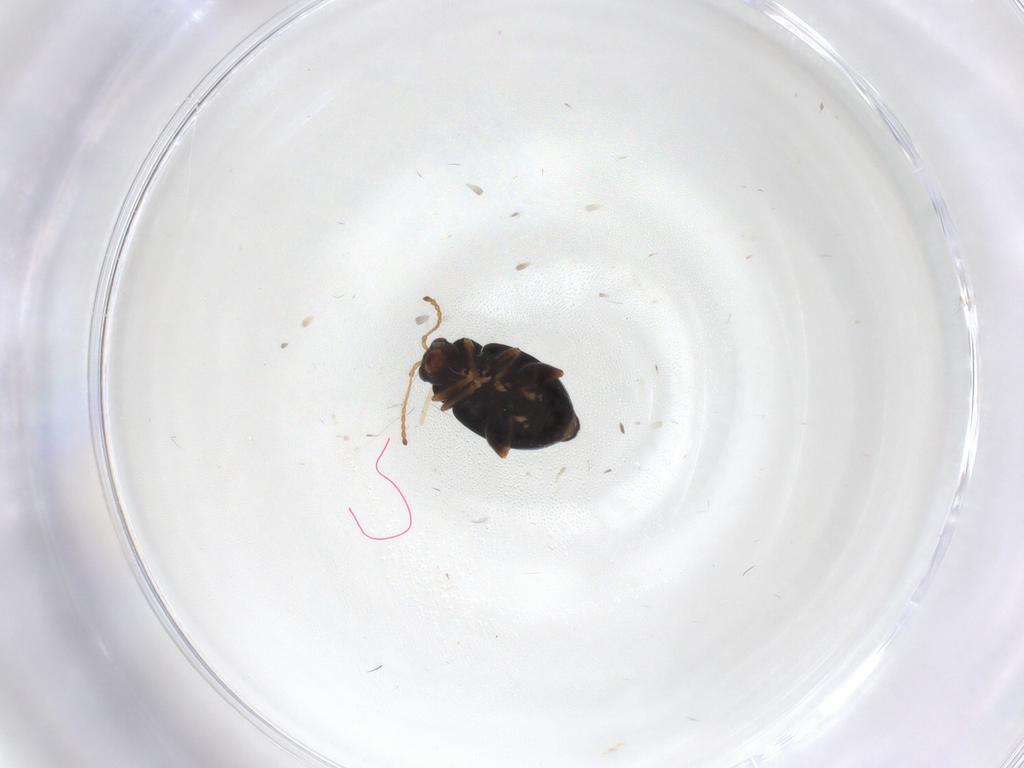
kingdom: Animalia
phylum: Arthropoda
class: Insecta
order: Coleoptera
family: Chrysomelidae
